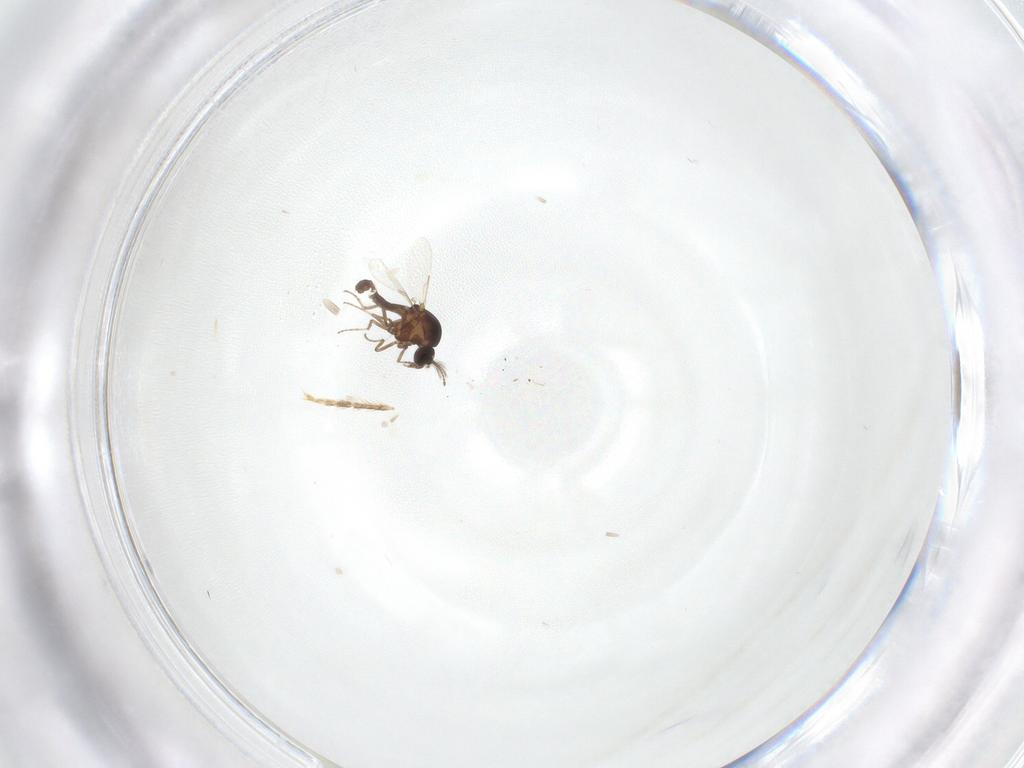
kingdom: Animalia
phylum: Arthropoda
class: Insecta
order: Diptera
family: Ceratopogonidae
